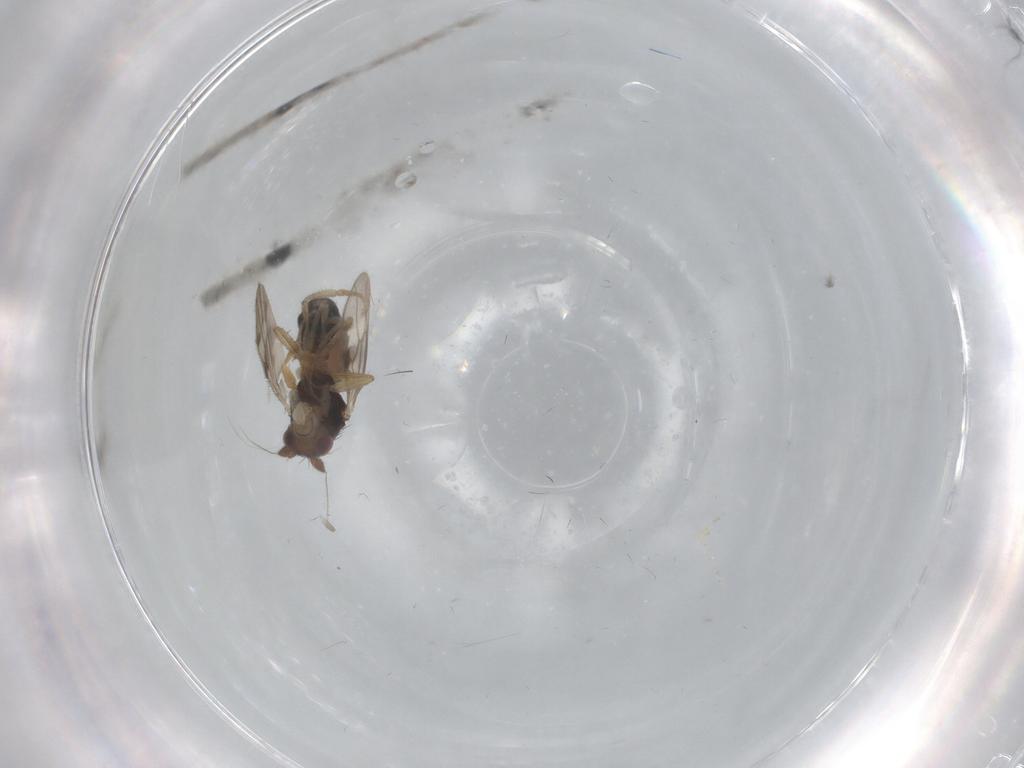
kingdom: Animalia
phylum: Arthropoda
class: Insecta
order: Diptera
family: Sphaeroceridae
